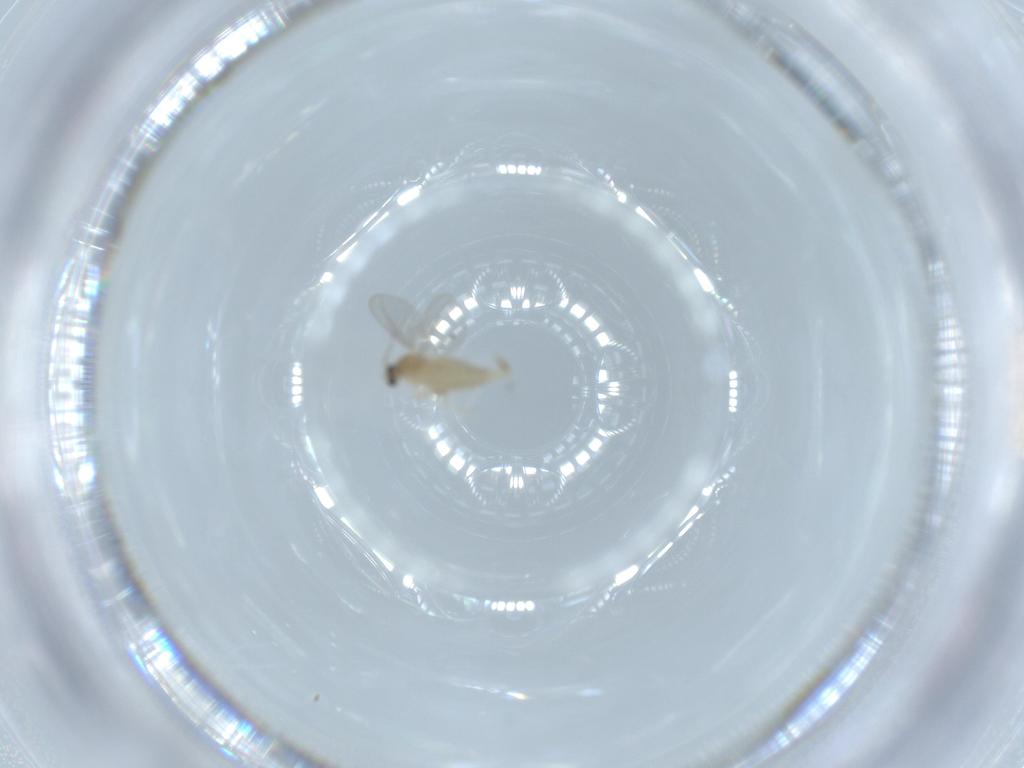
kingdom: Animalia
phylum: Arthropoda
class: Insecta
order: Diptera
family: Cecidomyiidae
